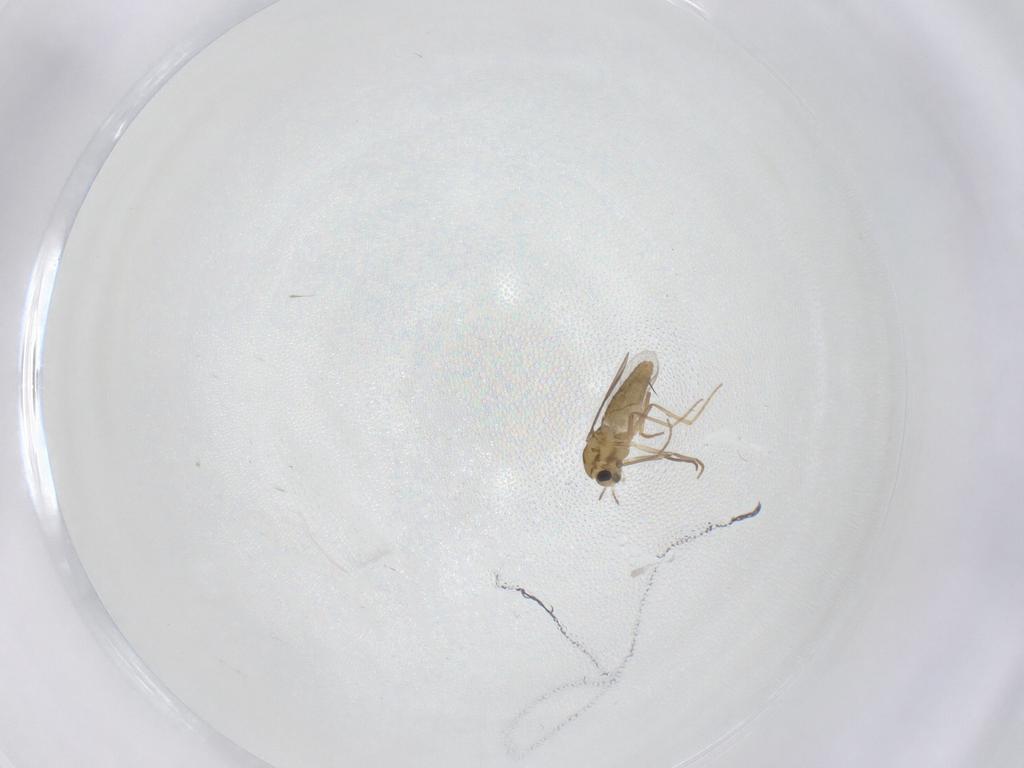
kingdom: Animalia
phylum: Arthropoda
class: Insecta
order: Diptera
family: Chironomidae
